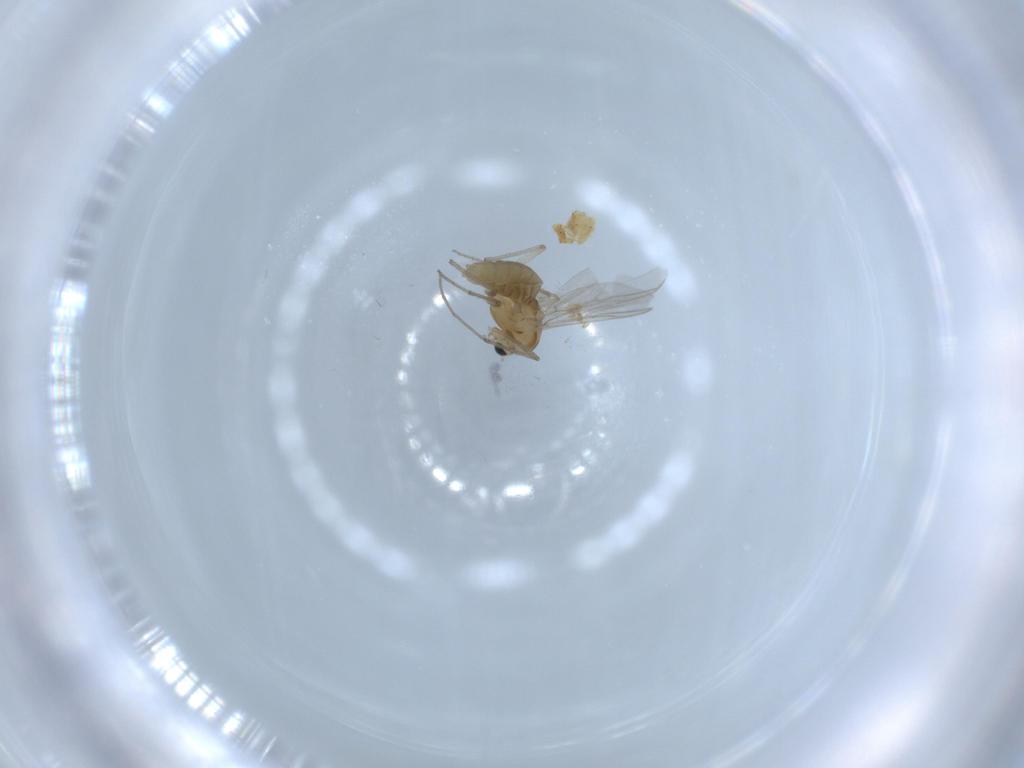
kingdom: Animalia
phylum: Arthropoda
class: Insecta
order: Diptera
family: Chironomidae
